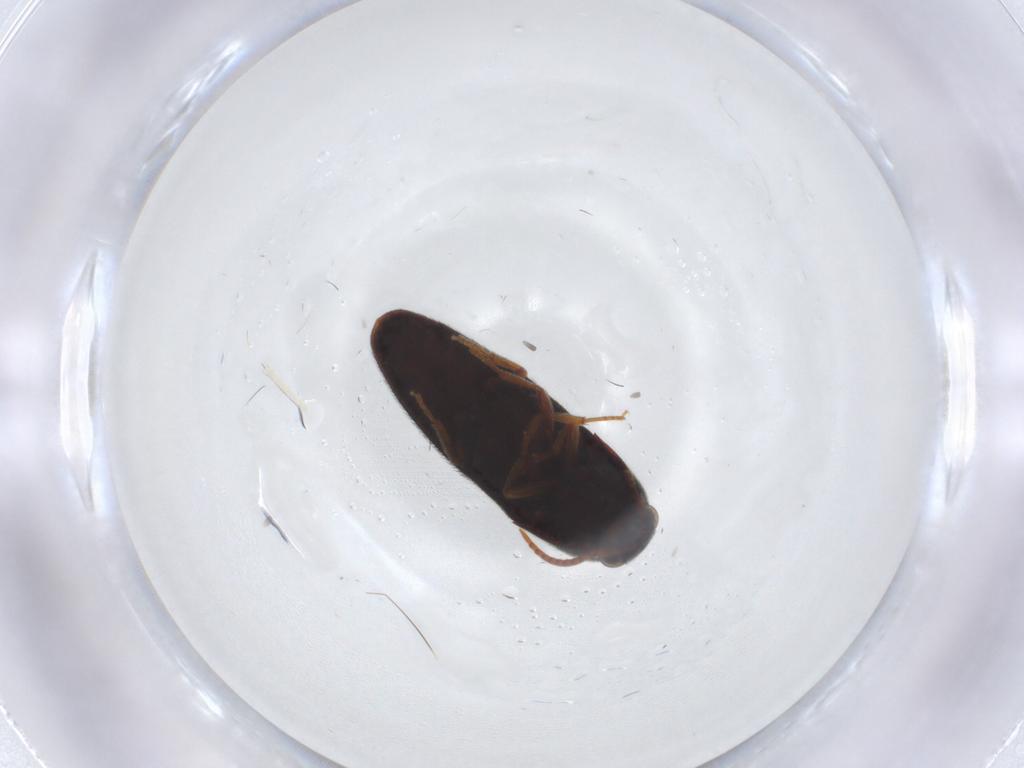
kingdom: Animalia
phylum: Arthropoda
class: Insecta
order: Coleoptera
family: Eucnemidae
